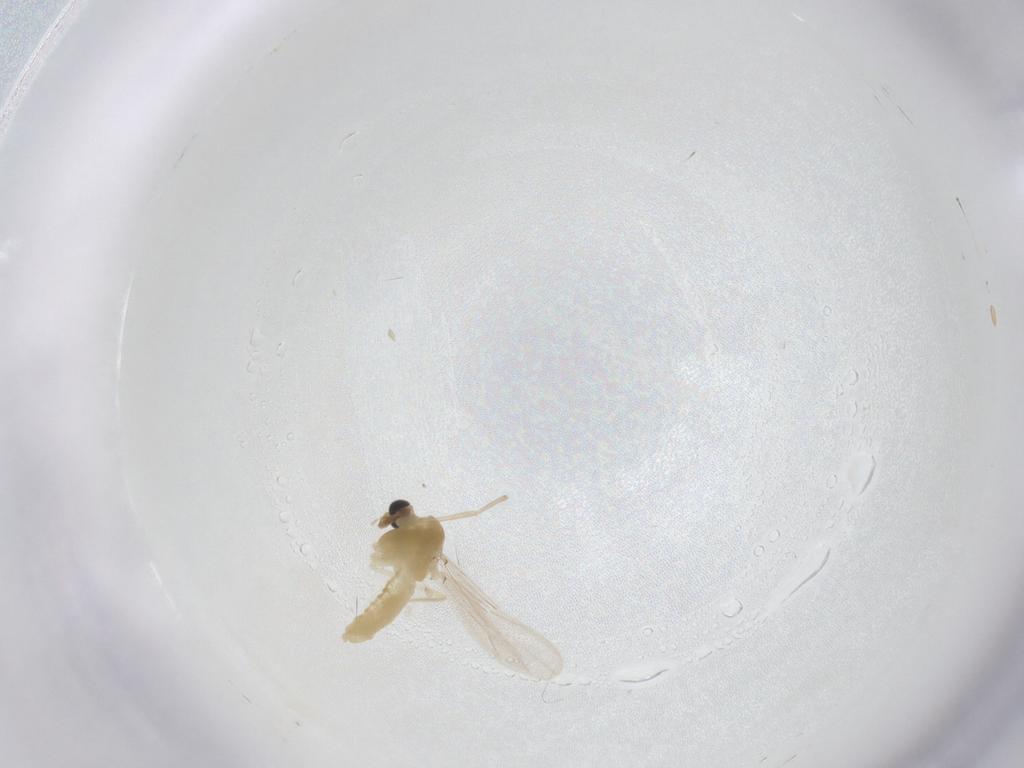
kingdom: Animalia
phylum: Arthropoda
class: Insecta
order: Diptera
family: Chironomidae
